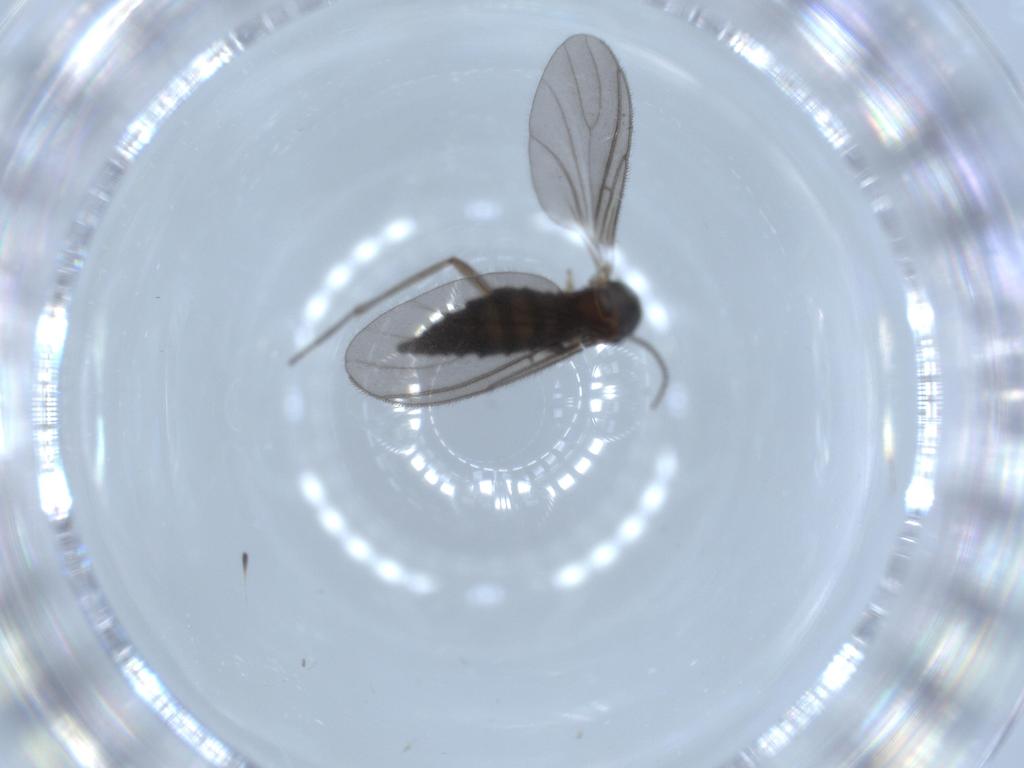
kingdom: Animalia
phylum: Arthropoda
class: Insecta
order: Diptera
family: Sciaridae
